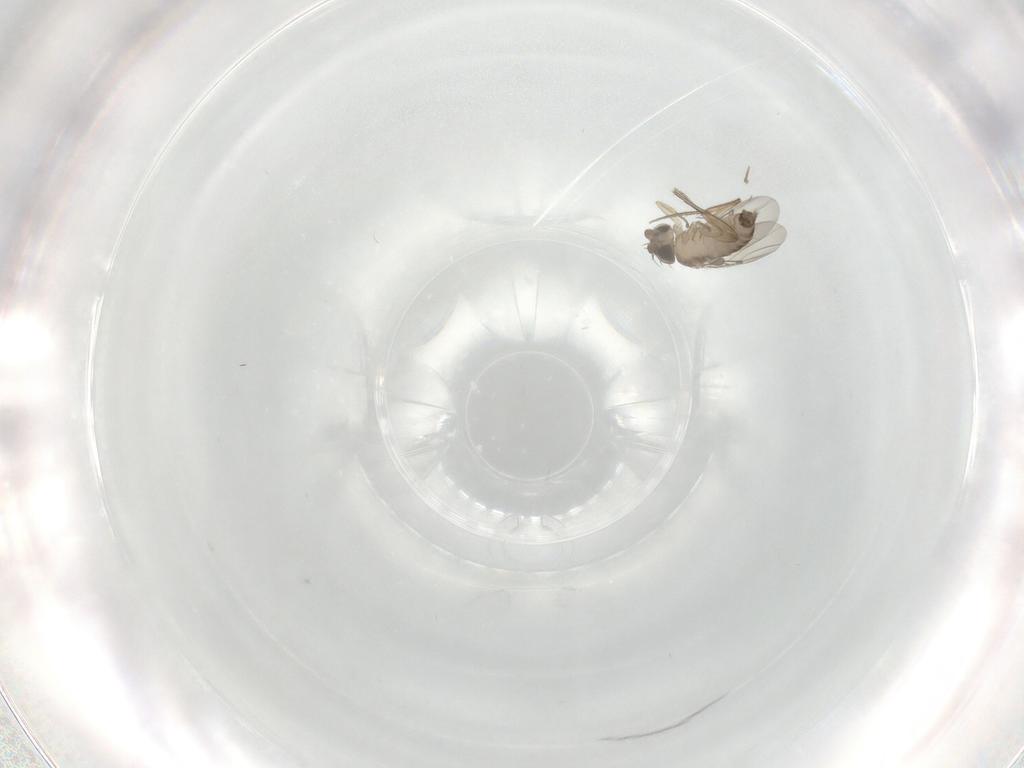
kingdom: Animalia
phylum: Arthropoda
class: Insecta
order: Diptera
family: Phoridae
